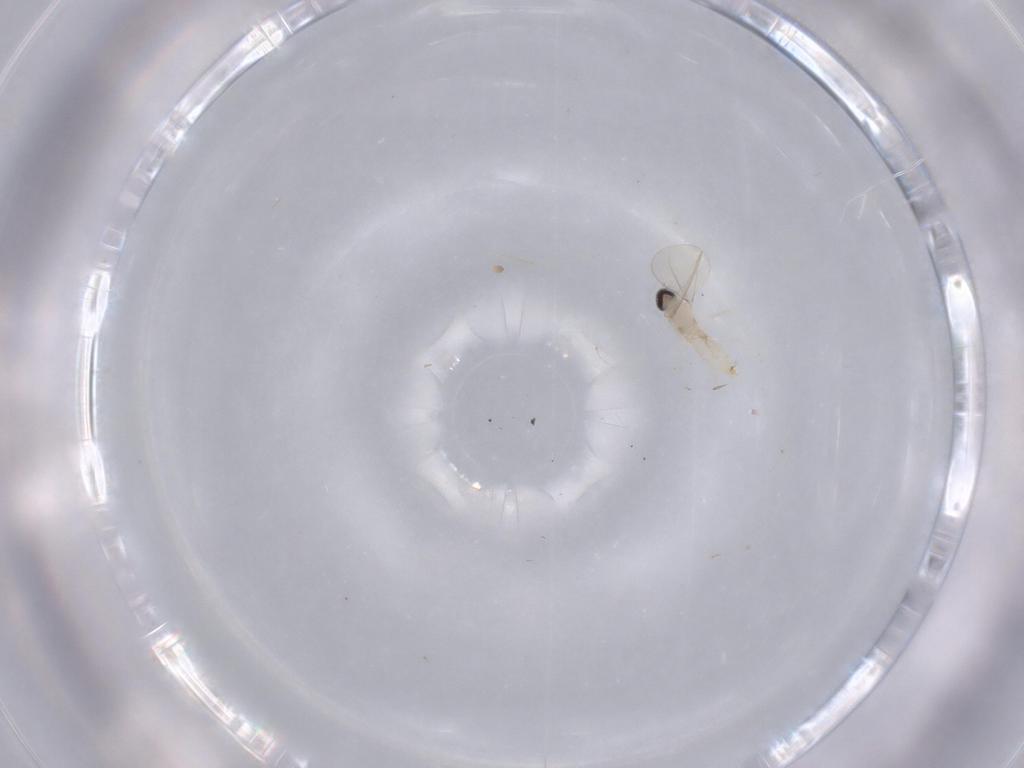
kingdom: Animalia
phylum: Arthropoda
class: Insecta
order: Diptera
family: Cecidomyiidae
